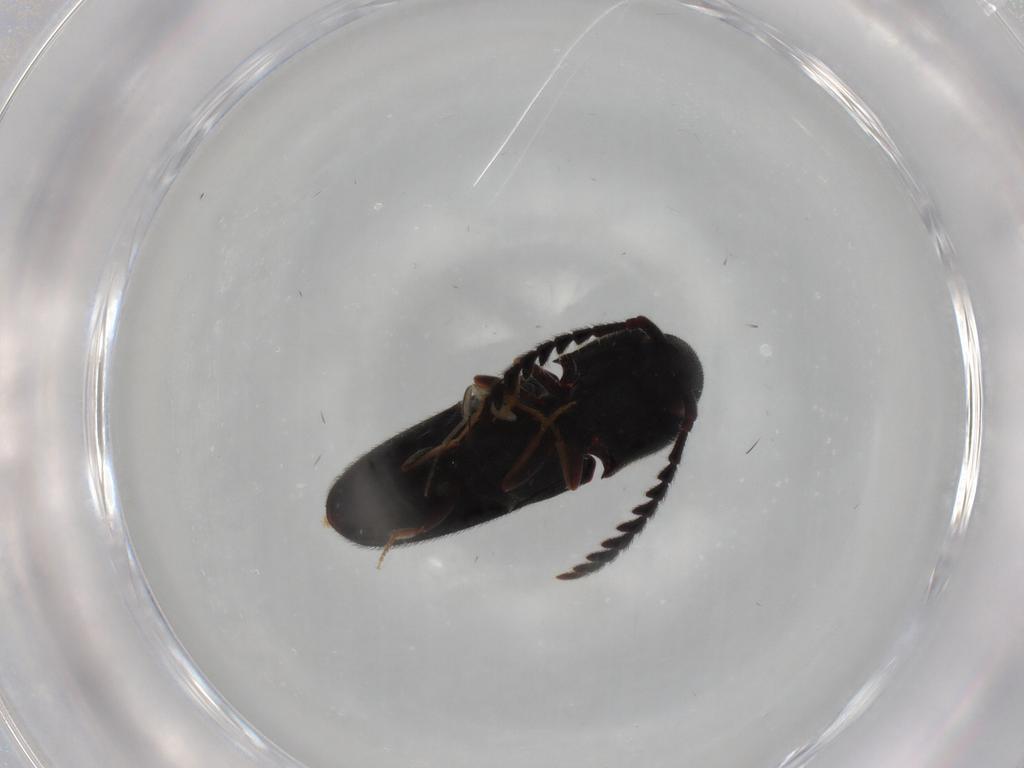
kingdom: Animalia
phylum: Arthropoda
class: Insecta
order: Coleoptera
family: Eucnemidae
